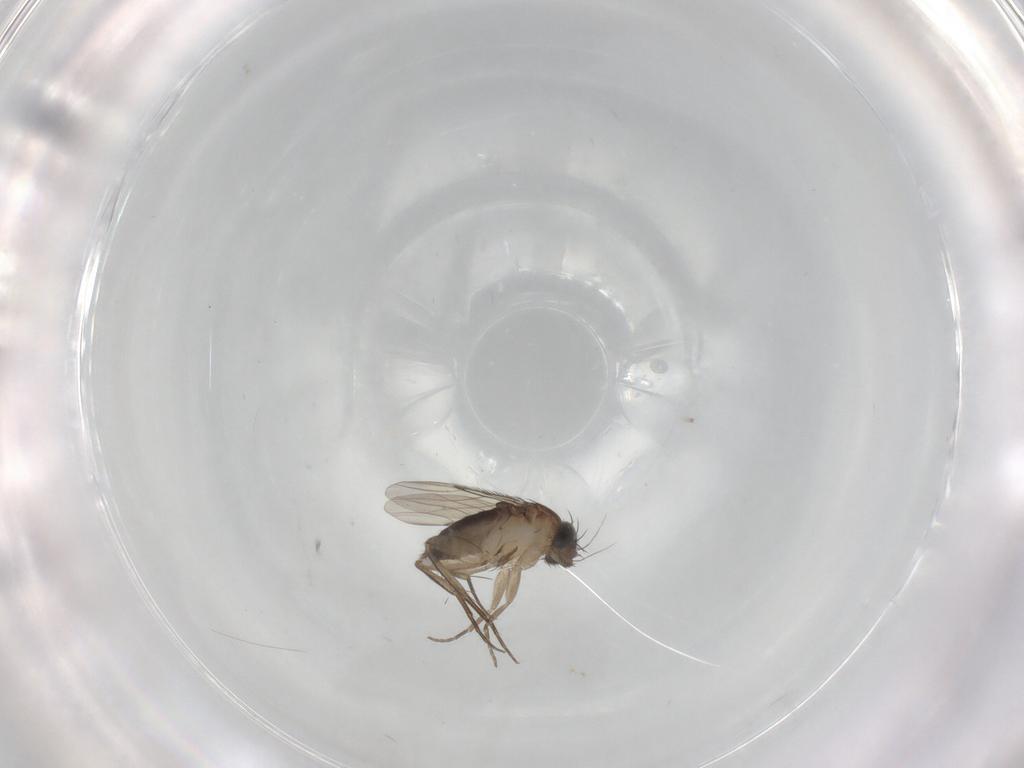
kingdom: Animalia
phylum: Arthropoda
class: Insecta
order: Diptera
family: Phoridae
